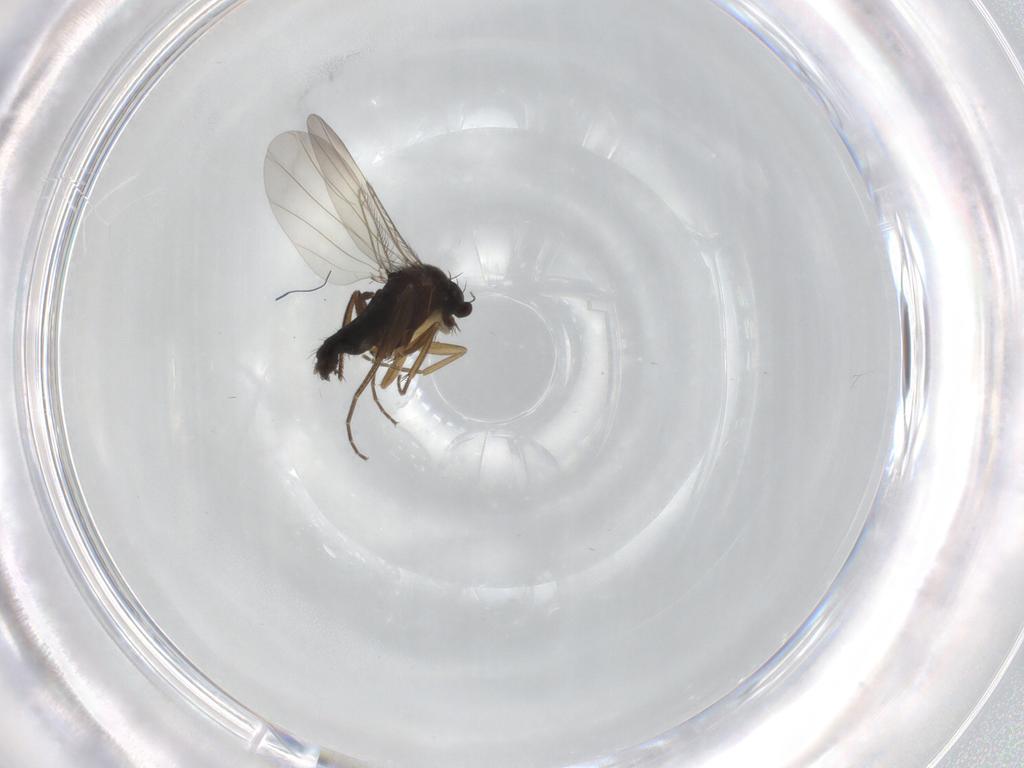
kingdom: Animalia
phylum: Arthropoda
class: Insecta
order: Diptera
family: Phoridae
